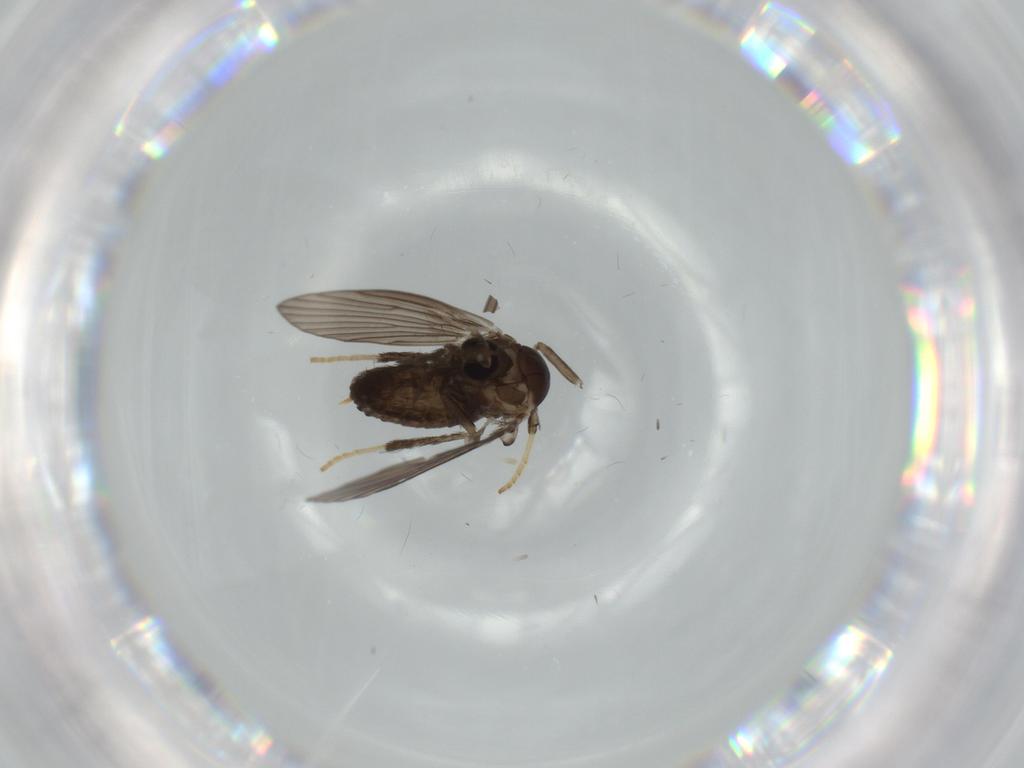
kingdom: Animalia
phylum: Arthropoda
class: Insecta
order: Diptera
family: Psychodidae
